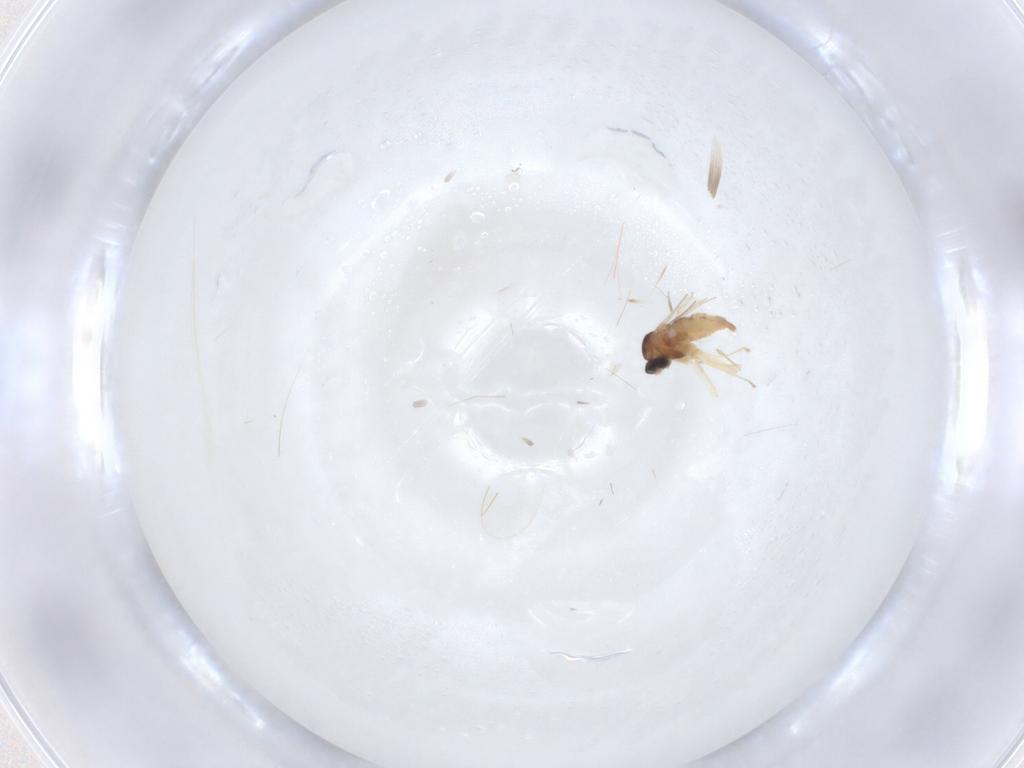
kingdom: Animalia
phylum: Arthropoda
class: Insecta
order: Diptera
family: Cecidomyiidae
